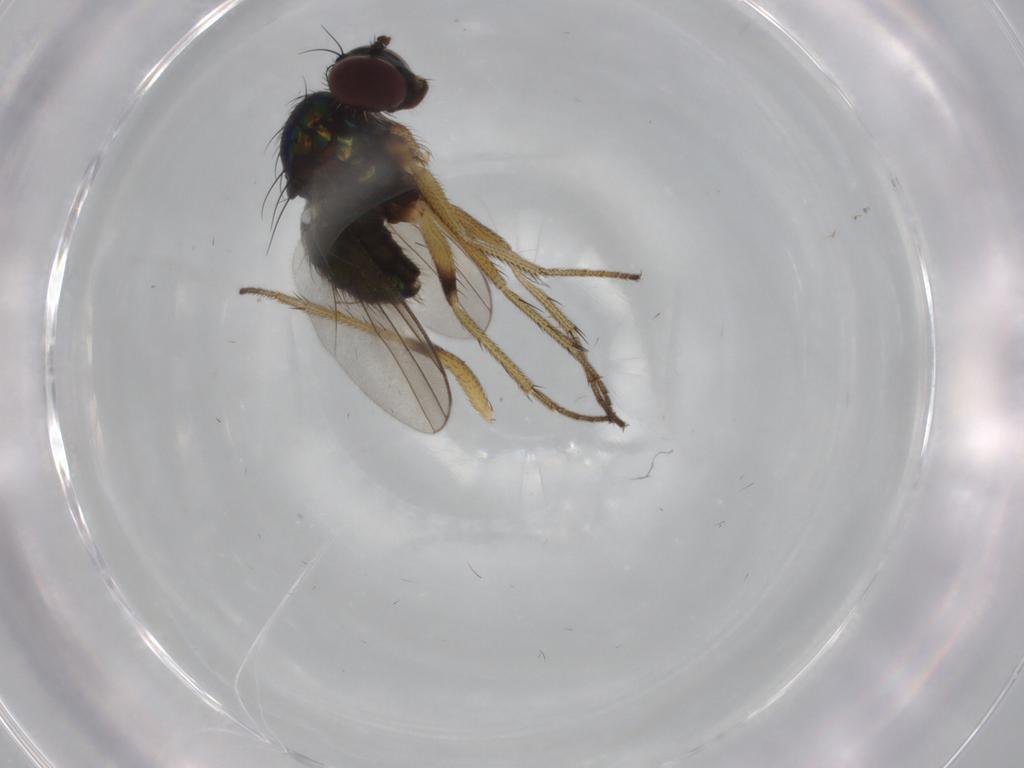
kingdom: Animalia
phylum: Arthropoda
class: Insecta
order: Diptera
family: Dolichopodidae
